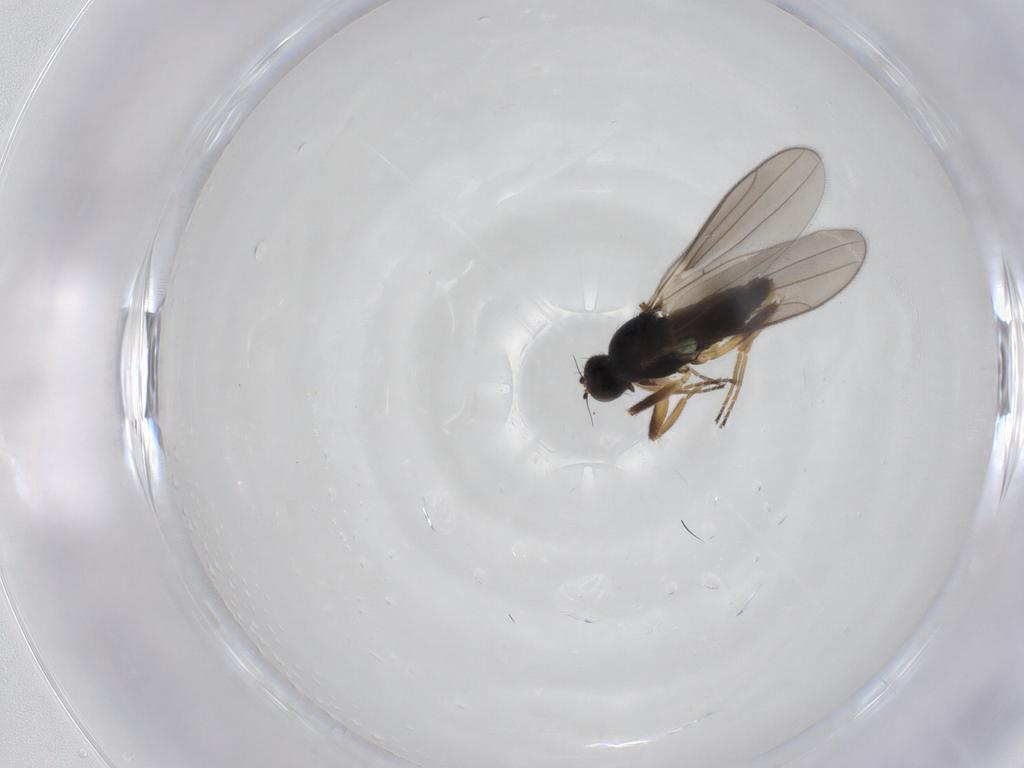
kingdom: Animalia
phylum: Arthropoda
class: Insecta
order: Diptera
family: Hybotidae
